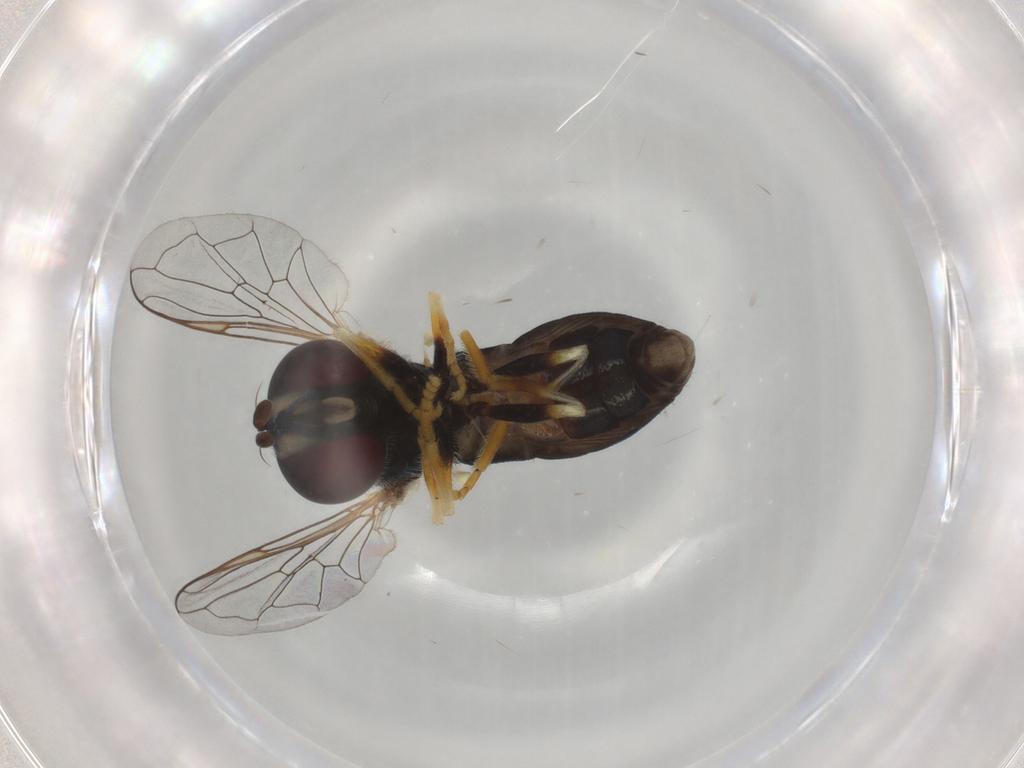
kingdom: Animalia
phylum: Arthropoda
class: Insecta
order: Diptera
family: Syrphidae
